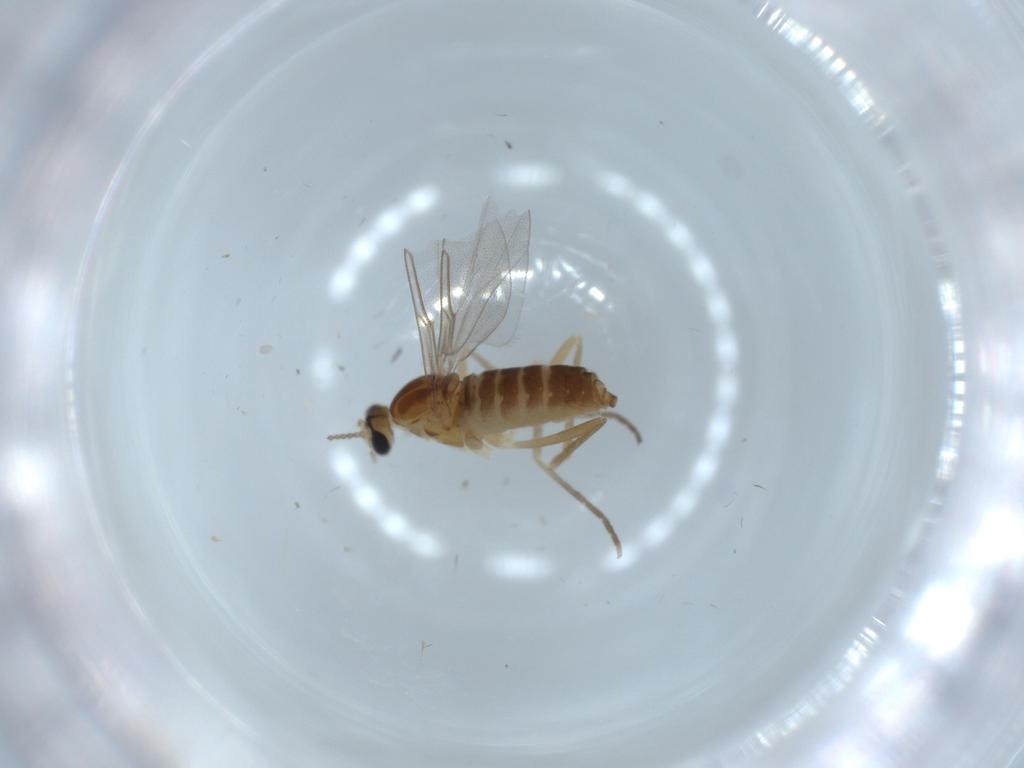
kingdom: Animalia
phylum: Arthropoda
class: Insecta
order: Diptera
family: Cecidomyiidae
